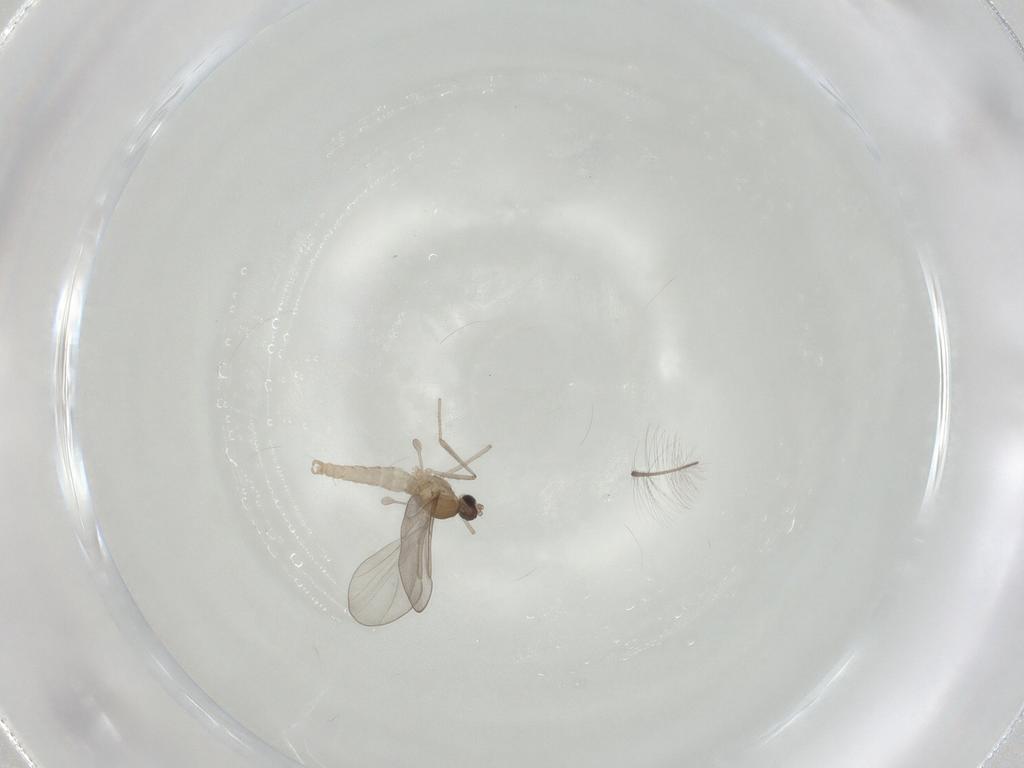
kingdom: Animalia
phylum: Arthropoda
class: Insecta
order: Diptera
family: Cecidomyiidae
